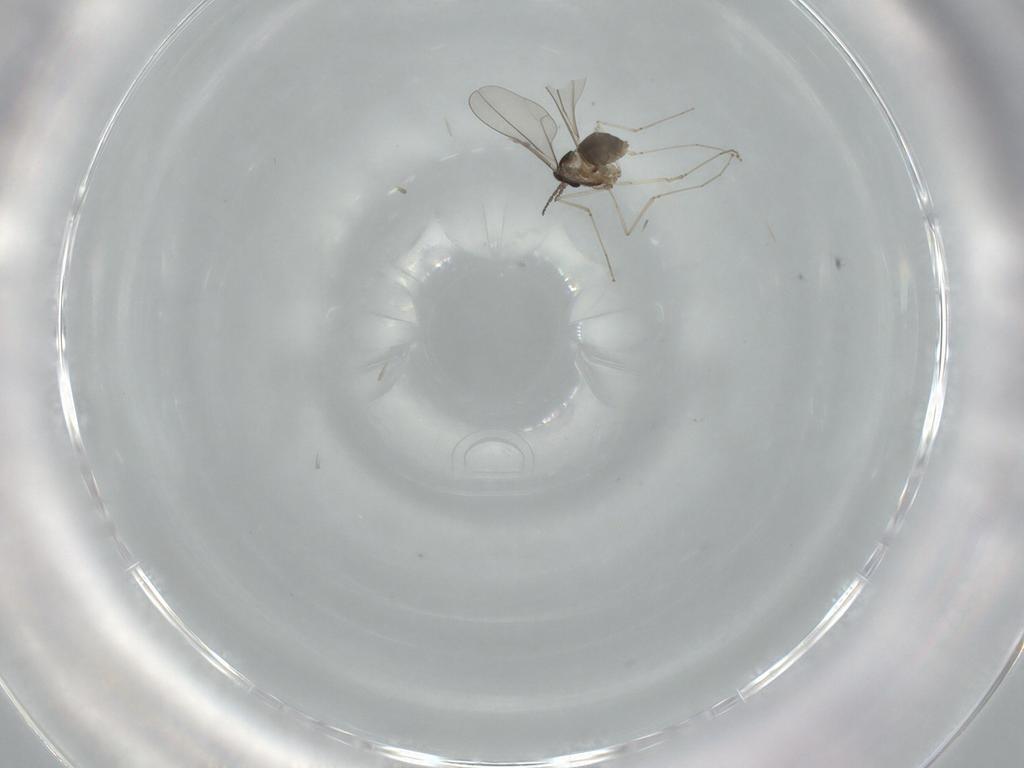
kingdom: Animalia
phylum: Arthropoda
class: Insecta
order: Diptera
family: Cecidomyiidae
